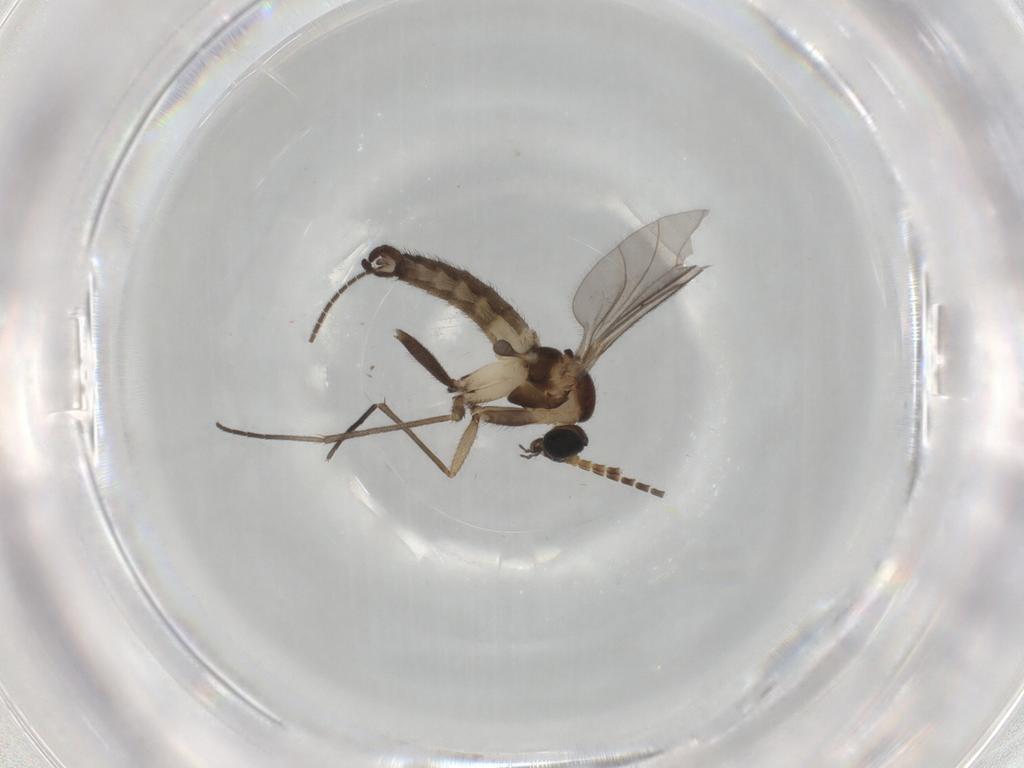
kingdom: Animalia
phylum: Arthropoda
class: Insecta
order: Diptera
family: Sciaridae
